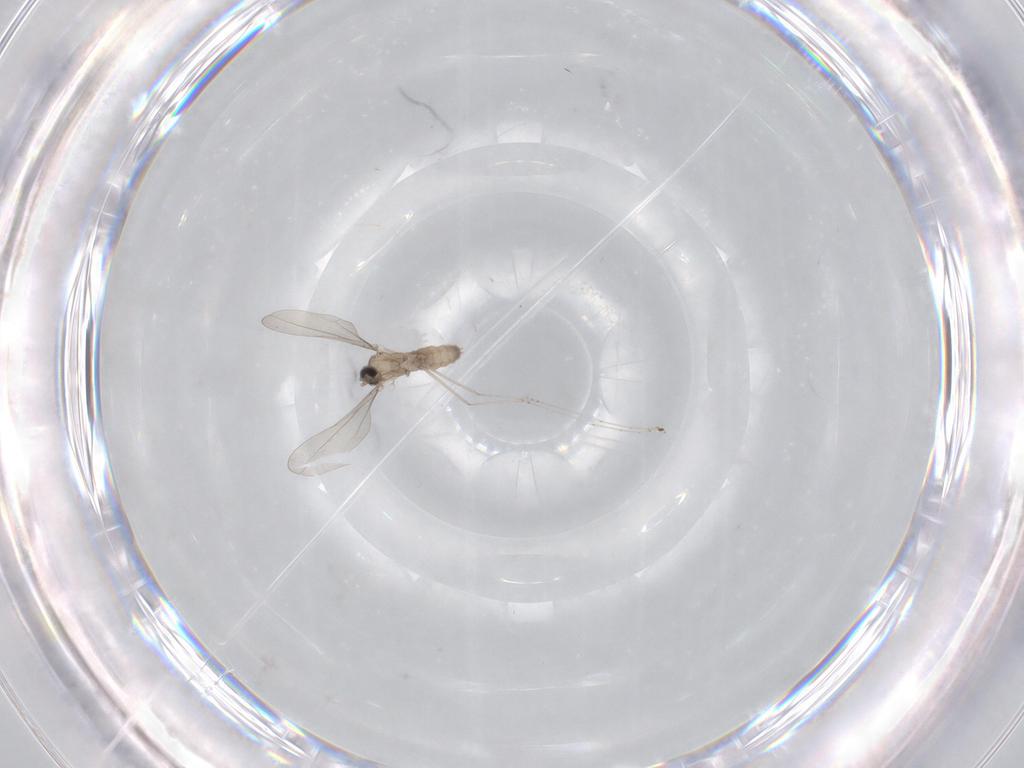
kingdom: Animalia
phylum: Arthropoda
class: Insecta
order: Diptera
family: Cecidomyiidae
